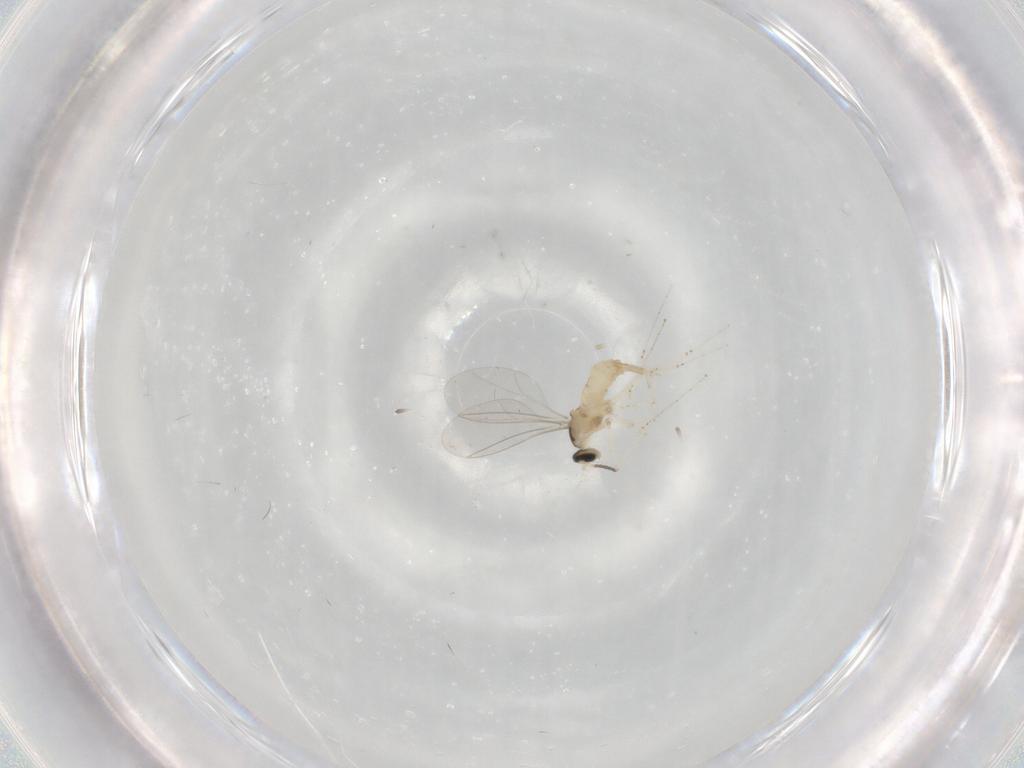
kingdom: Animalia
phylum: Arthropoda
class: Insecta
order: Diptera
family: Cecidomyiidae
